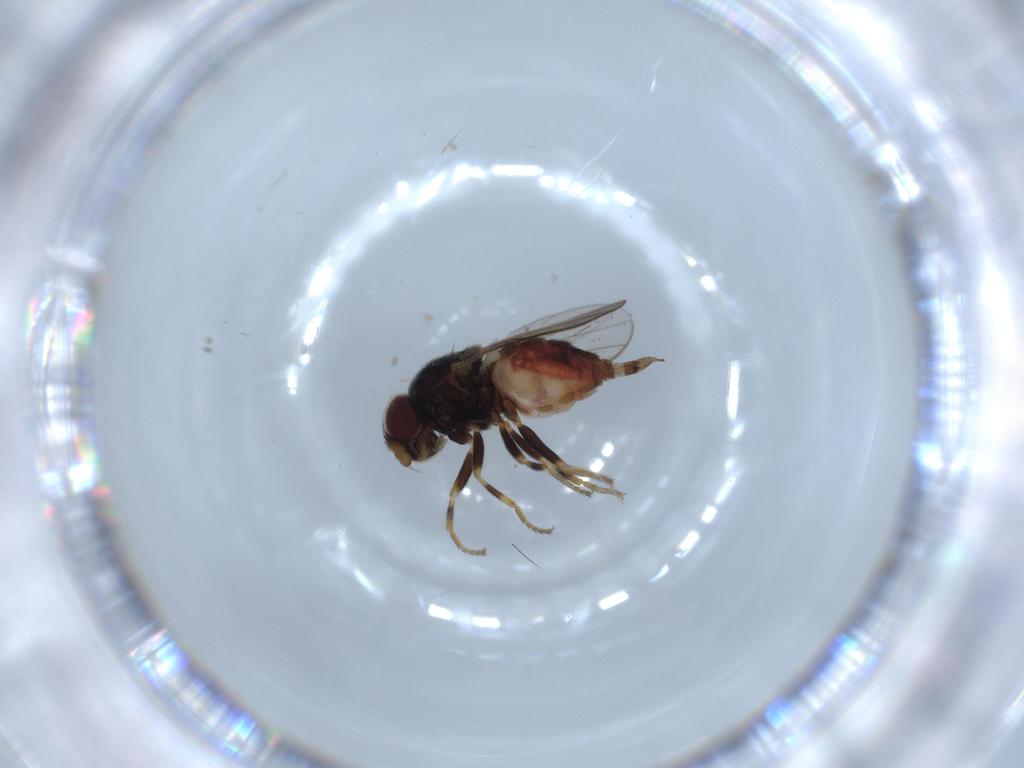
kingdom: Animalia
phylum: Arthropoda
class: Insecta
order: Diptera
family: Chloropidae
